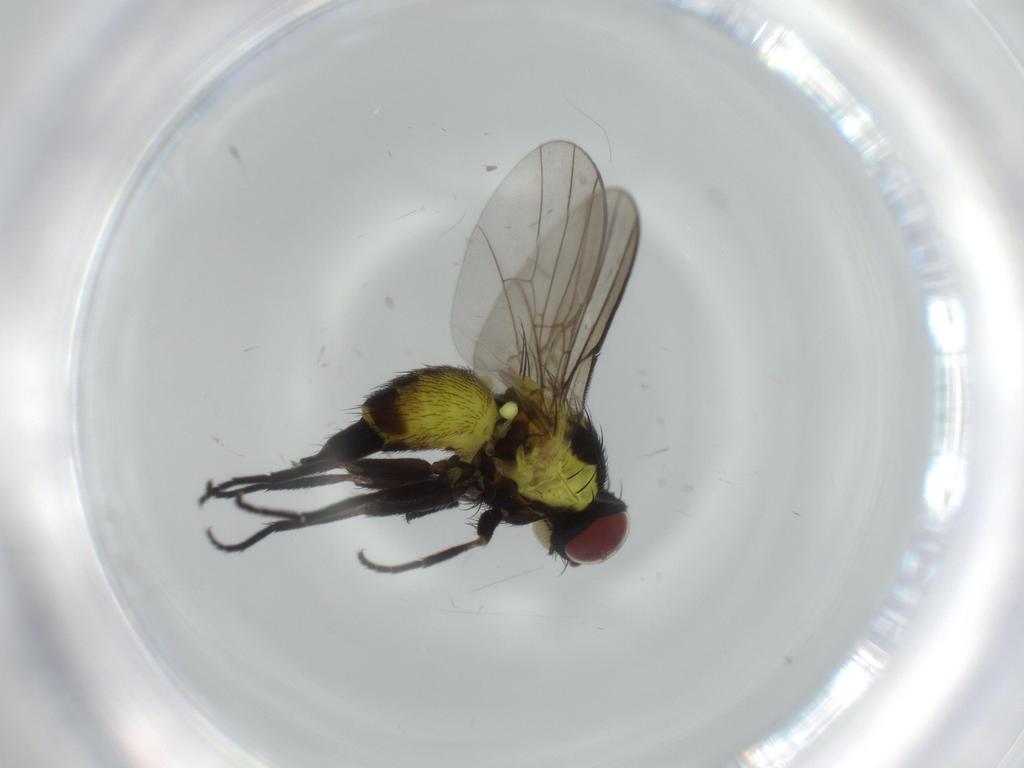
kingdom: Animalia
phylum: Arthropoda
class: Insecta
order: Diptera
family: Agromyzidae
